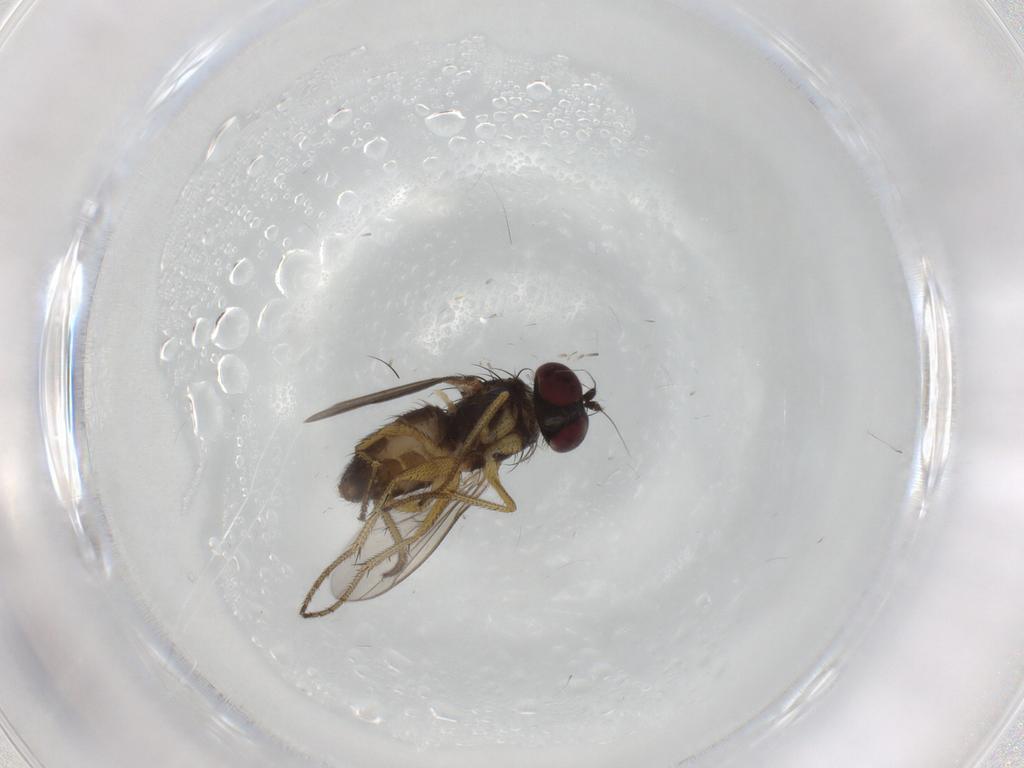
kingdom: Animalia
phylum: Arthropoda
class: Insecta
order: Diptera
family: Chironomidae
